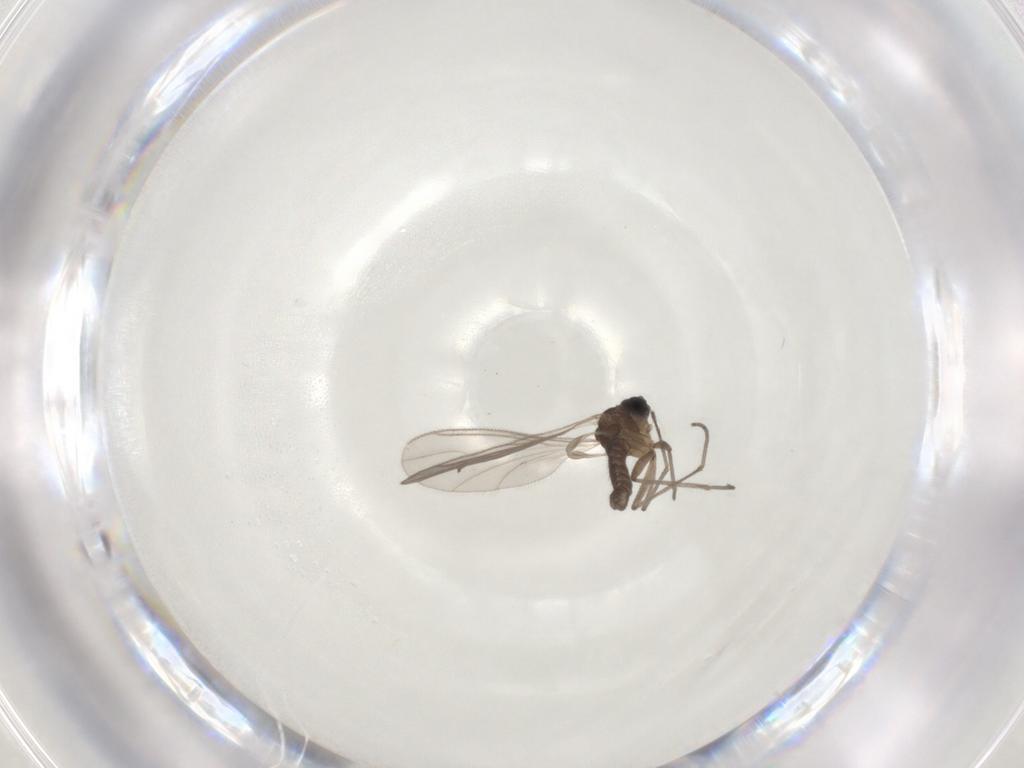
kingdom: Animalia
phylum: Arthropoda
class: Insecta
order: Diptera
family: Sciaridae
